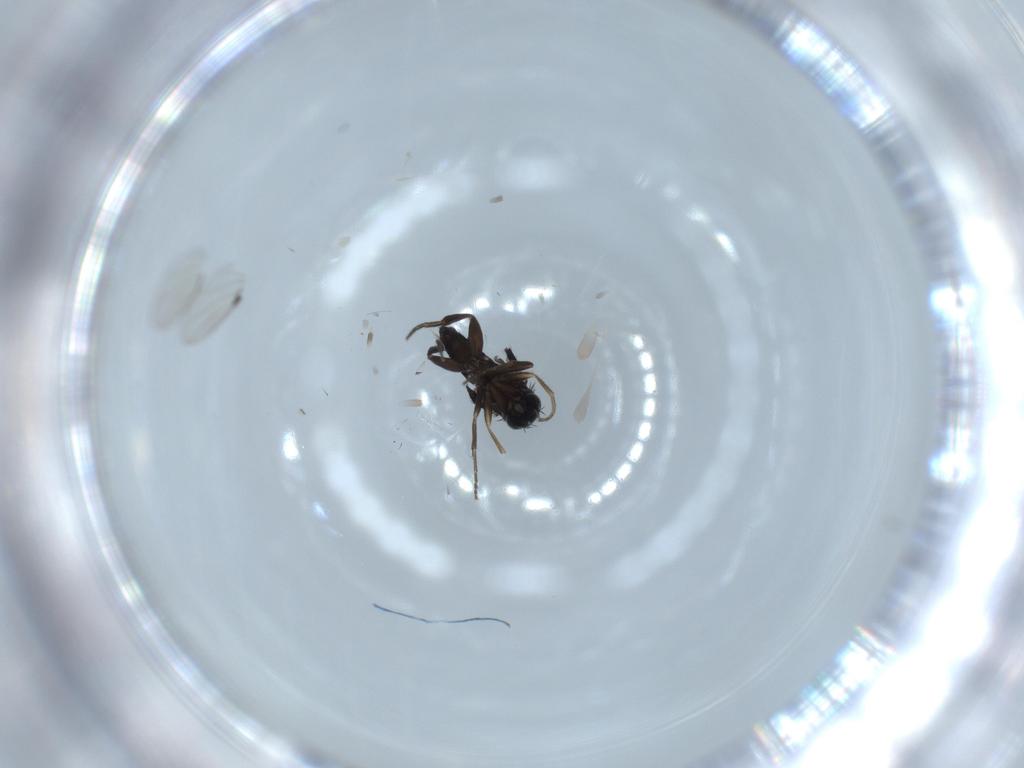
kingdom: Animalia
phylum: Arthropoda
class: Insecta
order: Diptera
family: Phoridae
